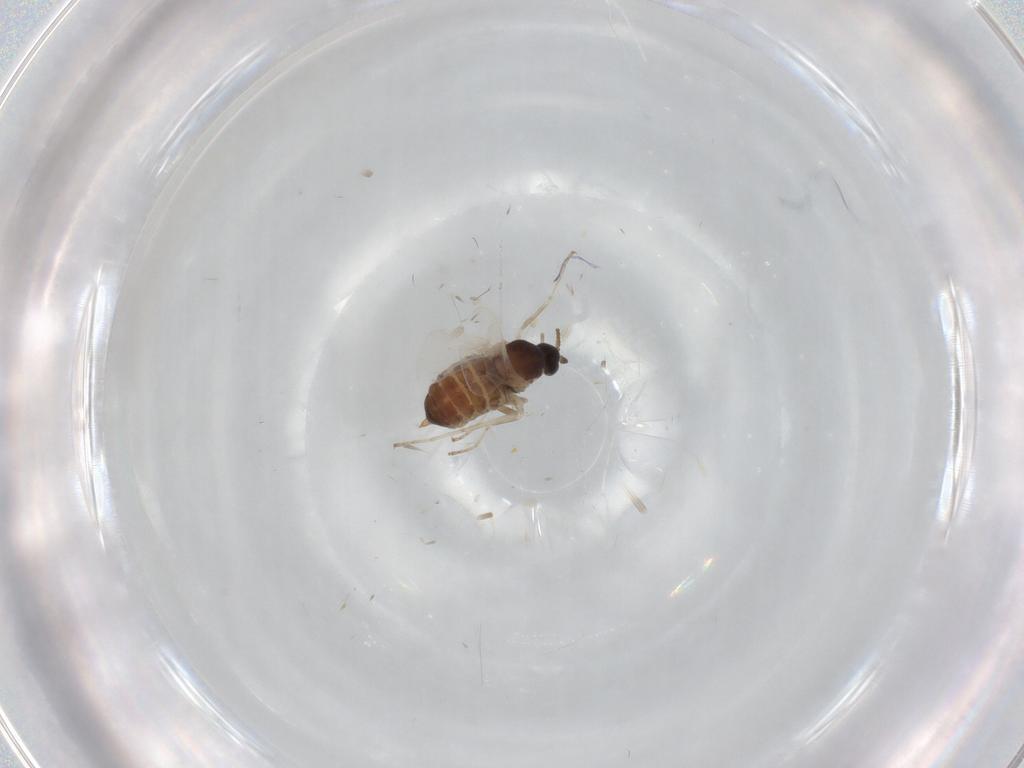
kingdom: Animalia
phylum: Arthropoda
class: Insecta
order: Diptera
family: Cecidomyiidae
